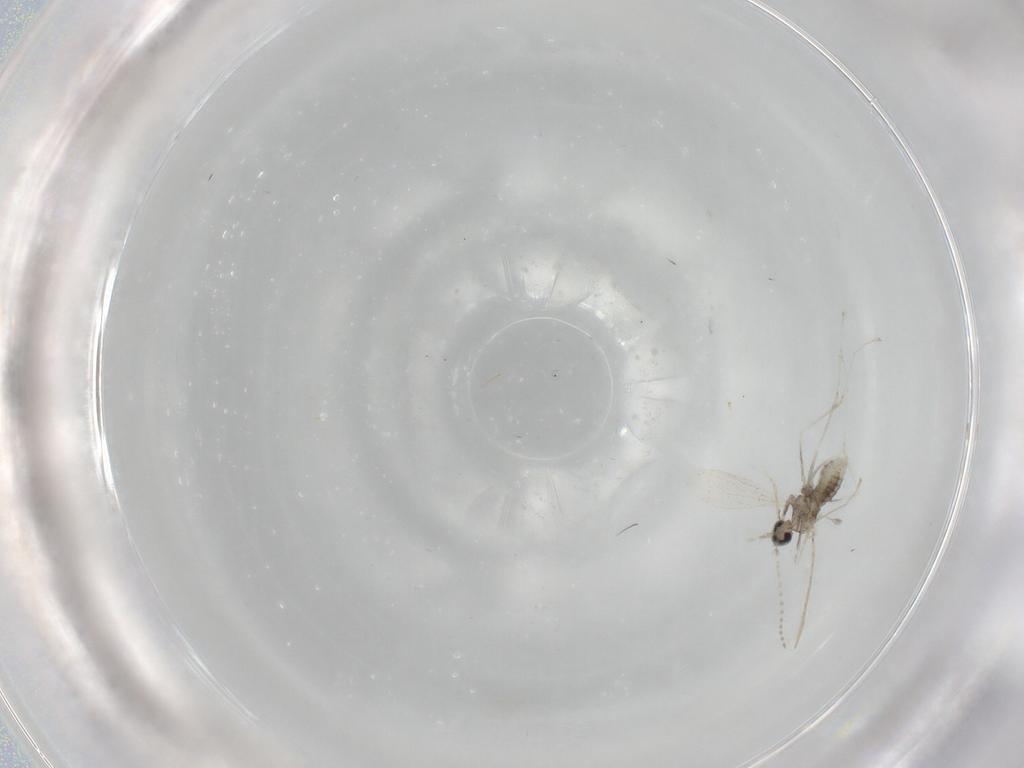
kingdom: Animalia
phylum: Arthropoda
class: Insecta
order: Diptera
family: Cecidomyiidae
